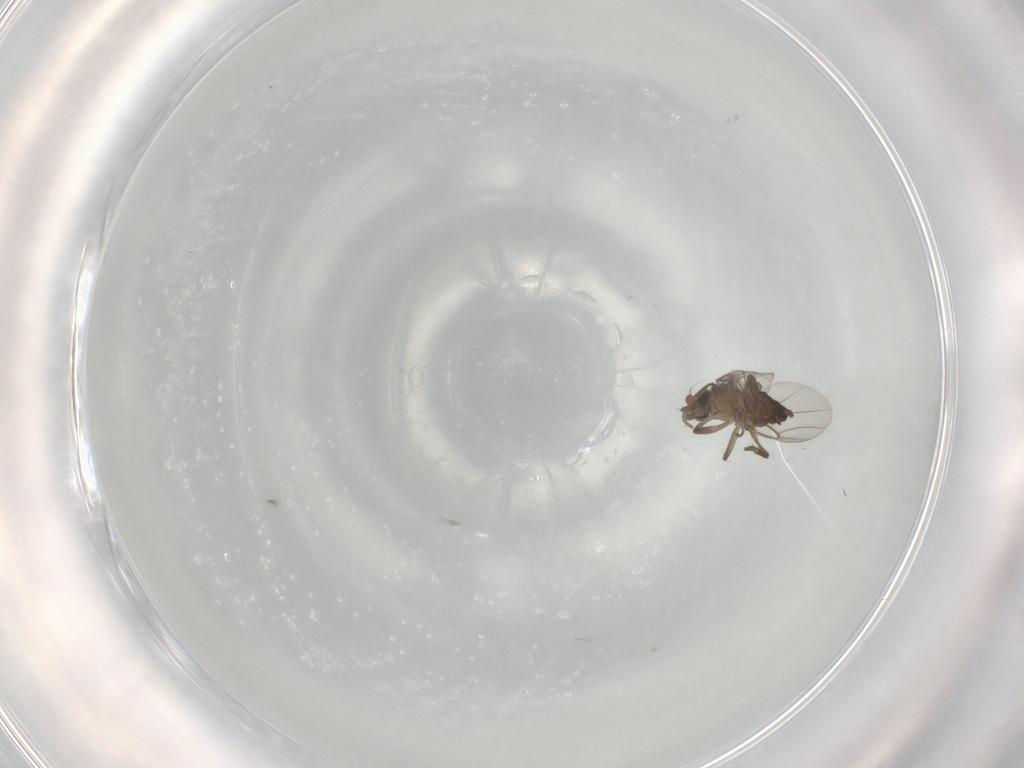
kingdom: Animalia
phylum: Arthropoda
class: Insecta
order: Diptera
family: Phoridae
